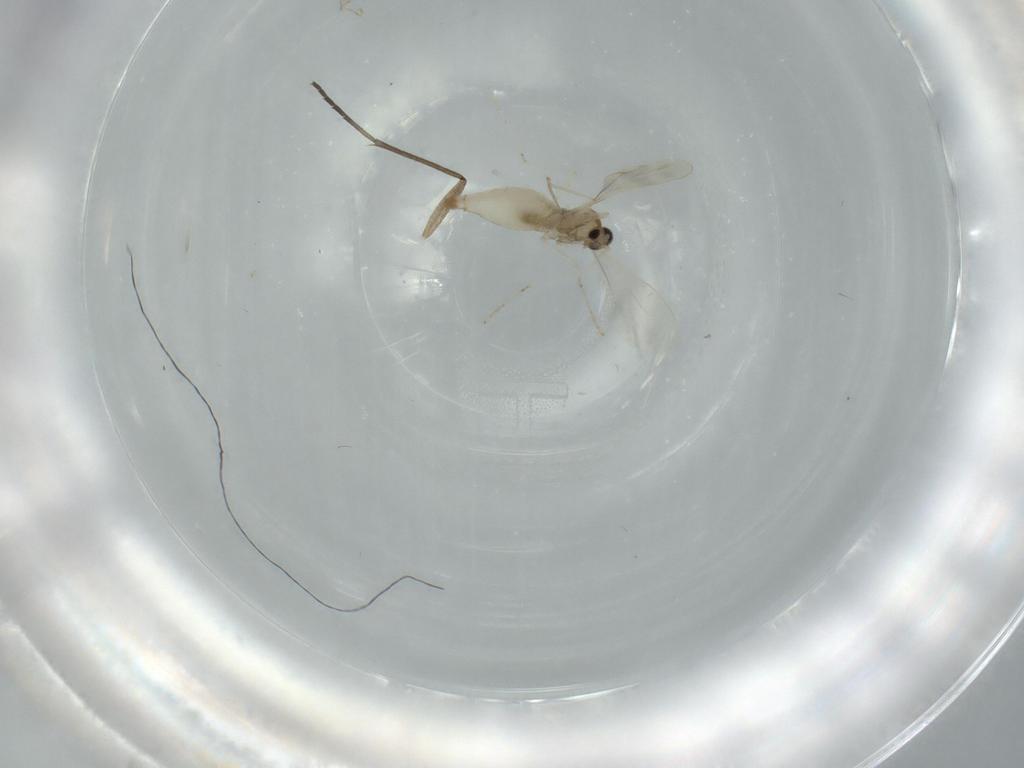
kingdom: Animalia
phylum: Arthropoda
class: Insecta
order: Diptera
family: Cecidomyiidae
